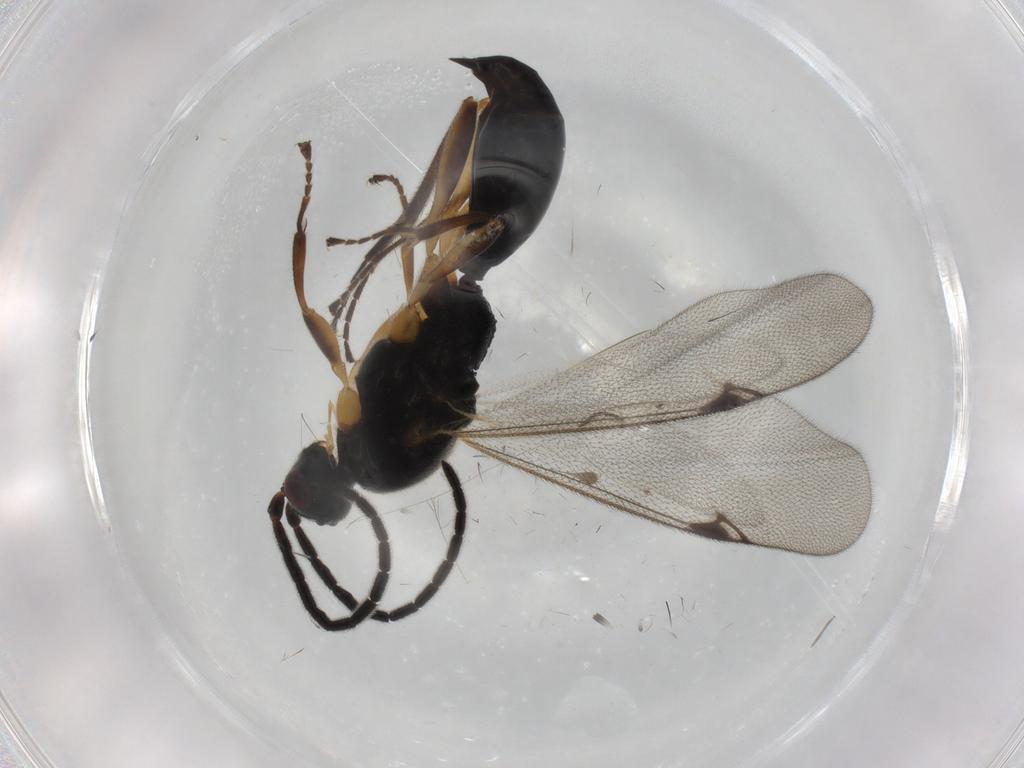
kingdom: Animalia
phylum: Arthropoda
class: Insecta
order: Hymenoptera
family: Proctotrupidae
